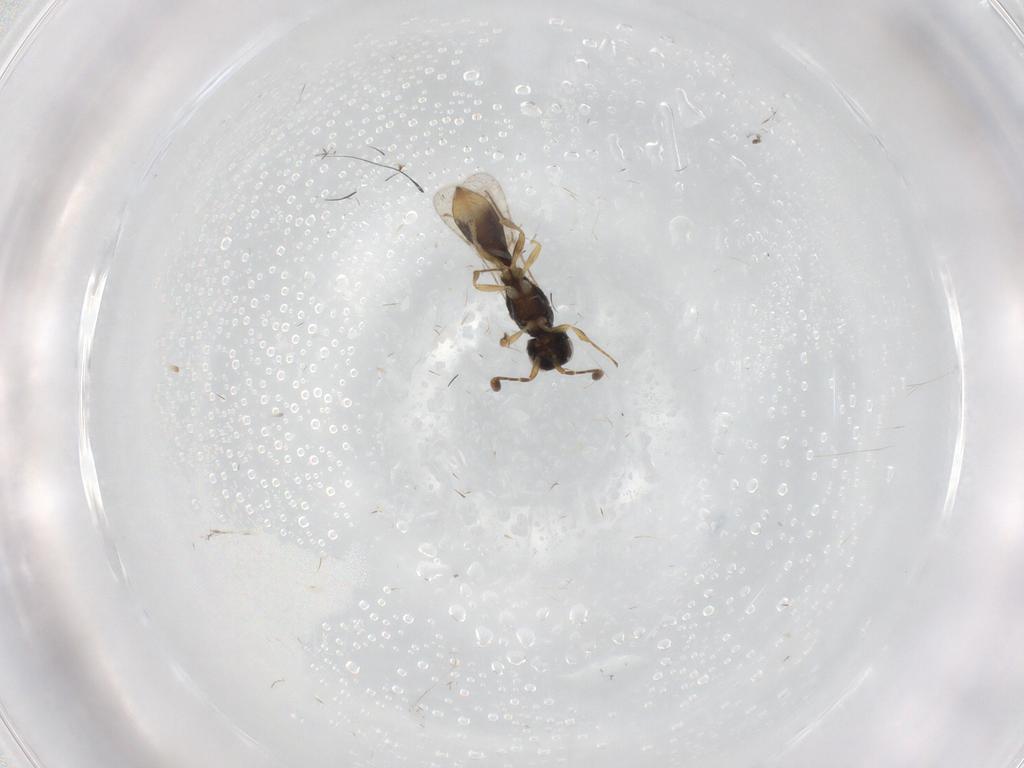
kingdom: Animalia
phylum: Arthropoda
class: Insecta
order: Hymenoptera
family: Scelionidae
